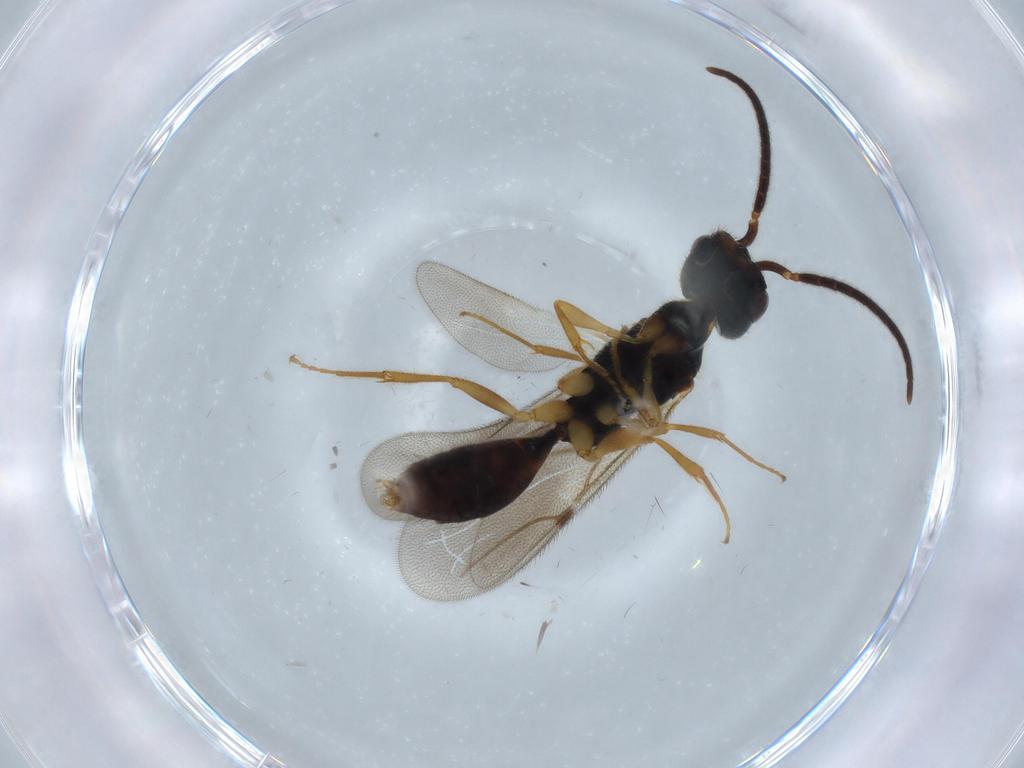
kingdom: Animalia
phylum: Arthropoda
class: Insecta
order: Hymenoptera
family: Bethylidae
